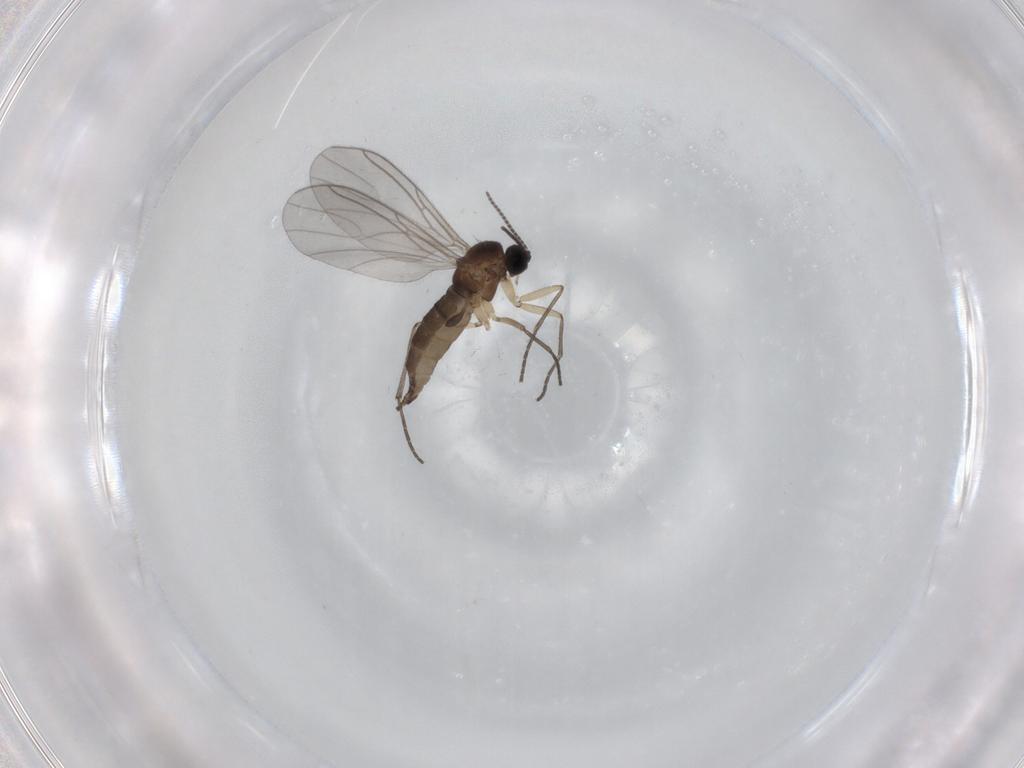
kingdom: Animalia
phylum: Arthropoda
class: Insecta
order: Diptera
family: Sciaridae
